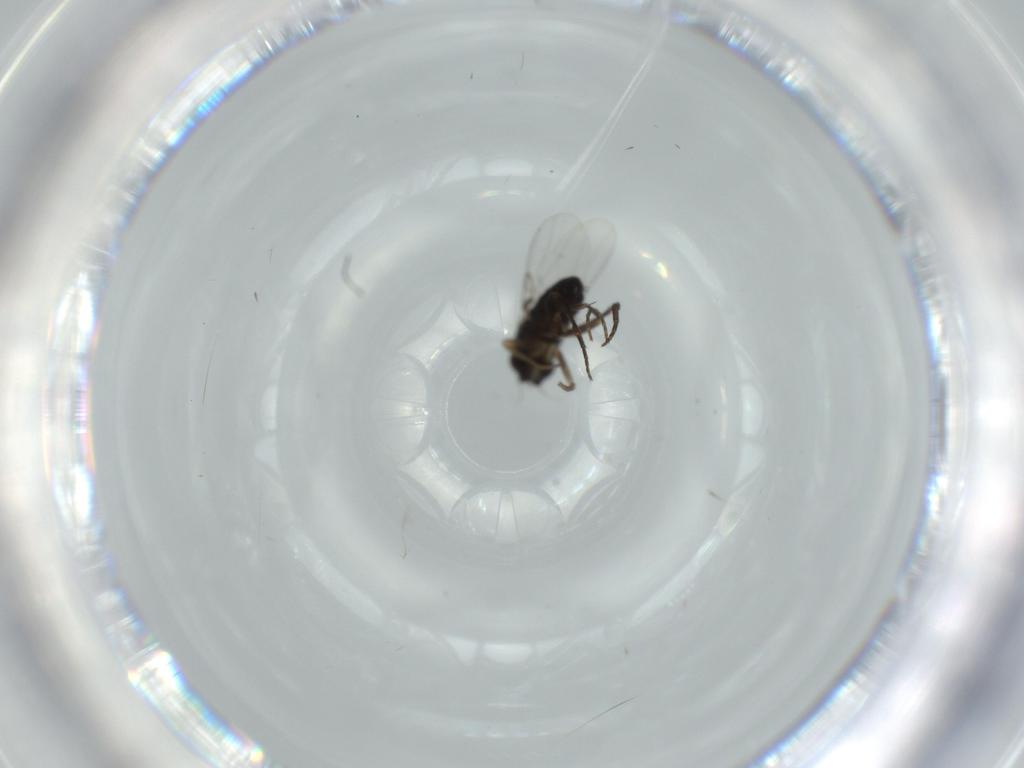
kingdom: Animalia
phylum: Arthropoda
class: Insecta
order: Diptera
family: Phoridae
